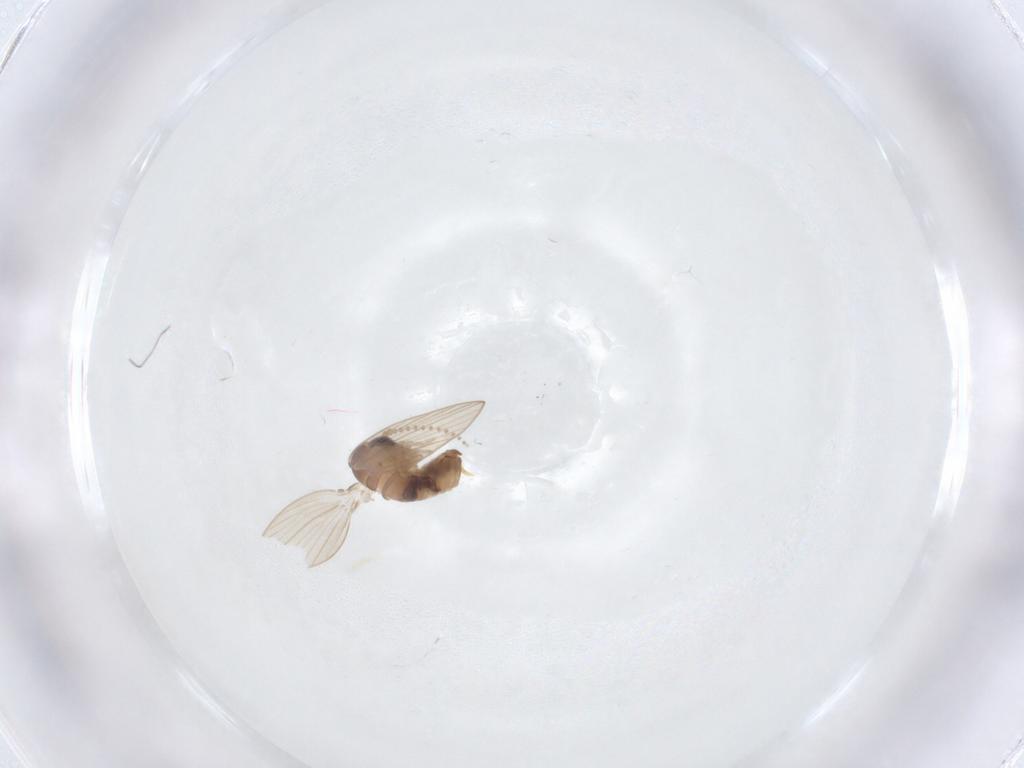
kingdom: Animalia
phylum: Arthropoda
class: Insecta
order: Diptera
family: Psychodidae
